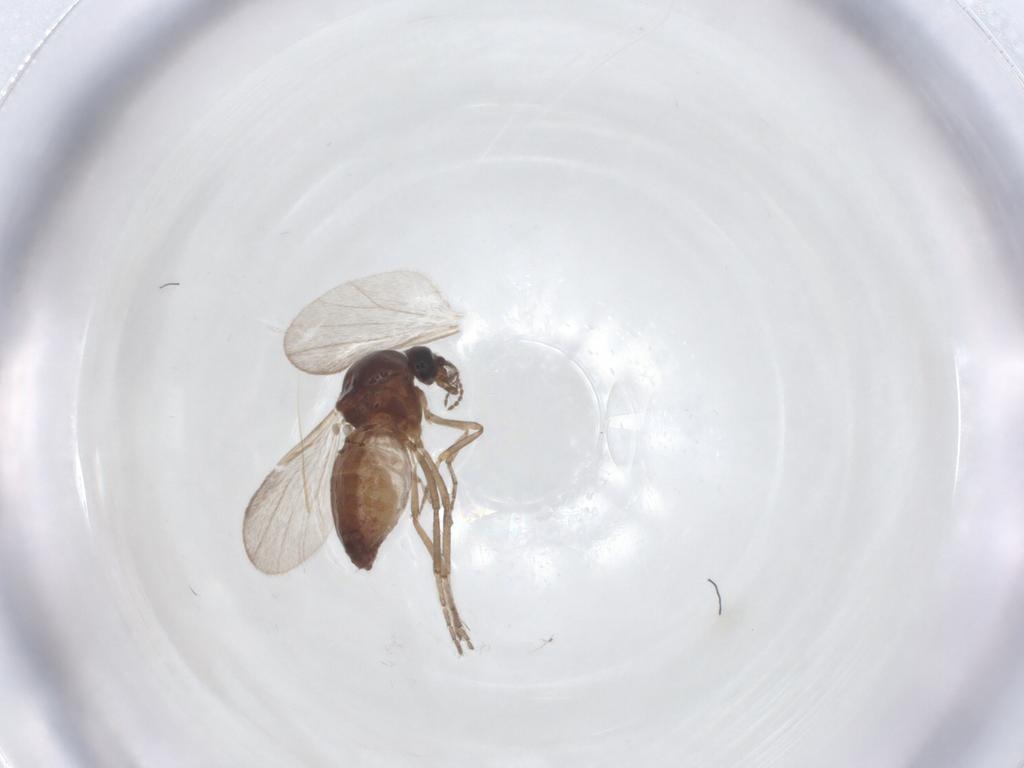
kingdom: Animalia
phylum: Arthropoda
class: Insecta
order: Diptera
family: Ceratopogonidae
